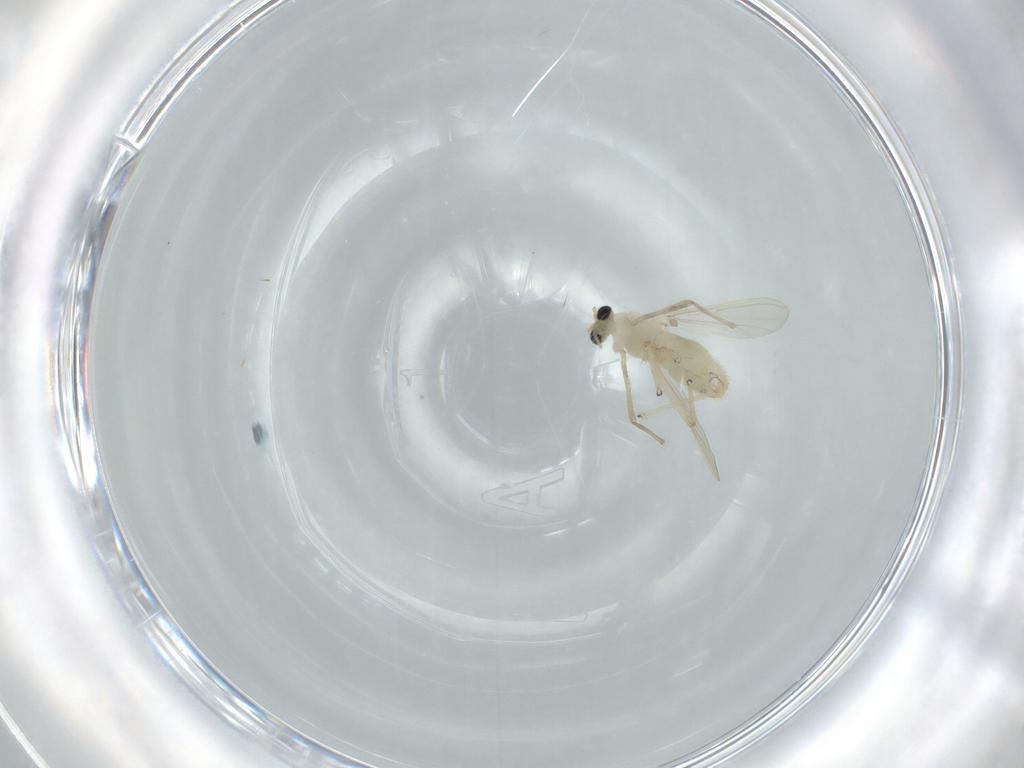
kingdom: Animalia
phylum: Arthropoda
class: Insecta
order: Diptera
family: Chironomidae
